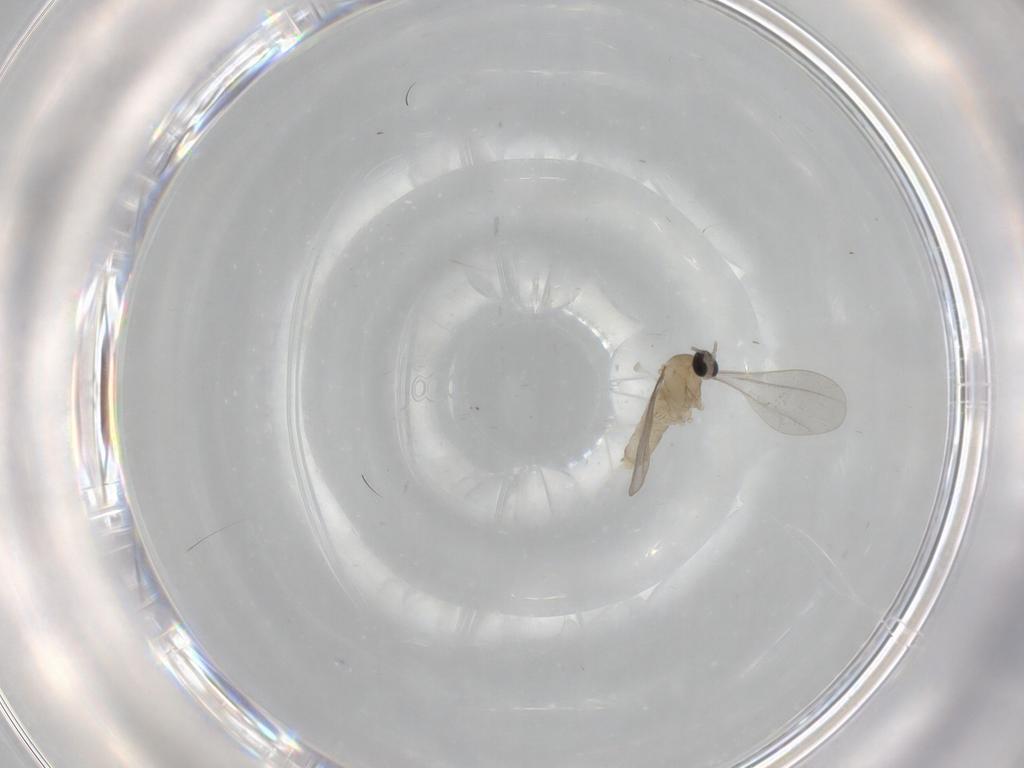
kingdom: Animalia
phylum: Arthropoda
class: Insecta
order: Diptera
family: Cecidomyiidae
